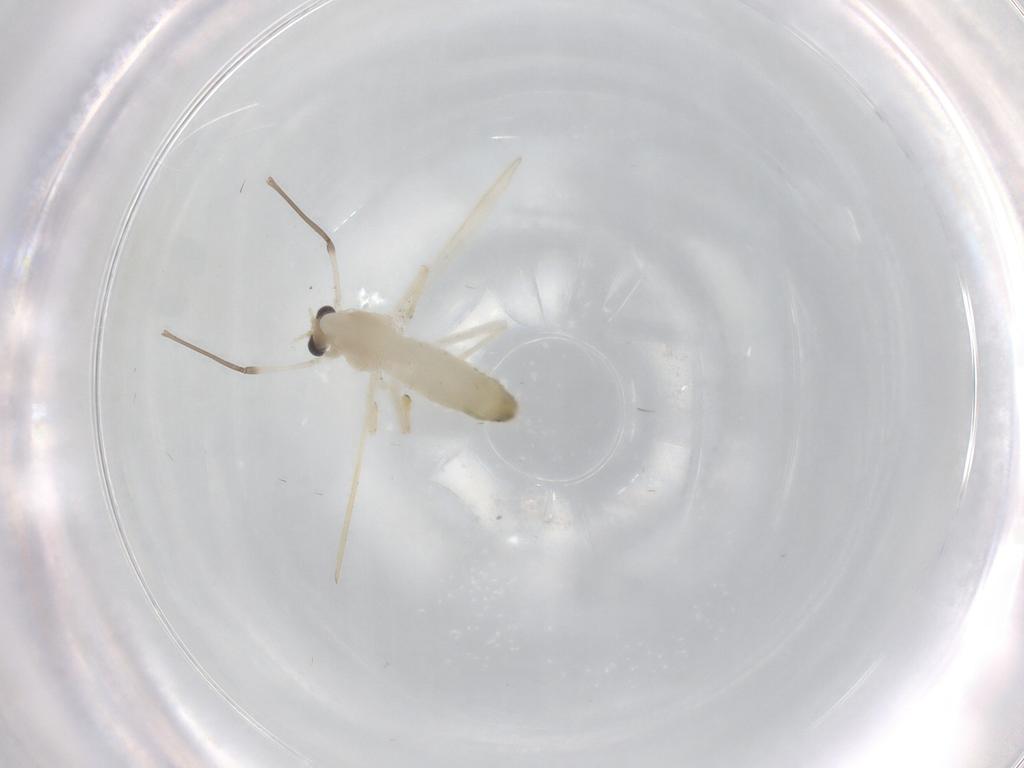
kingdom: Animalia
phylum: Arthropoda
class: Insecta
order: Diptera
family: Chironomidae
